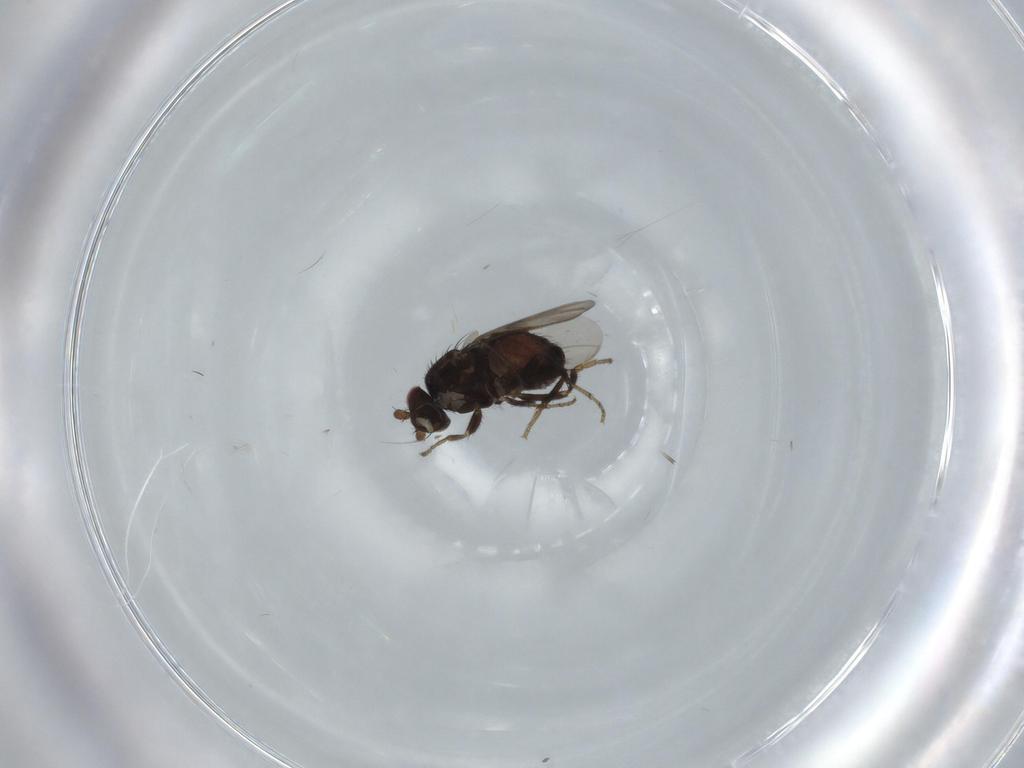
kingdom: Animalia
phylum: Arthropoda
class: Insecta
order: Diptera
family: Sphaeroceridae
